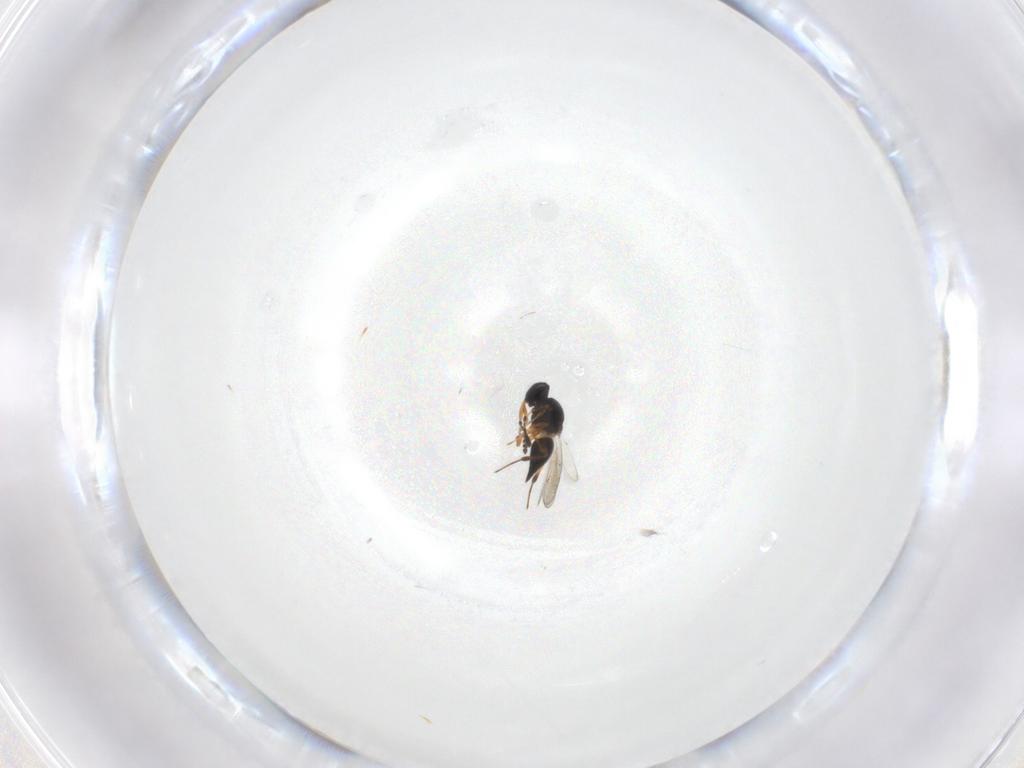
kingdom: Animalia
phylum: Arthropoda
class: Insecta
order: Hymenoptera
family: Platygastridae
